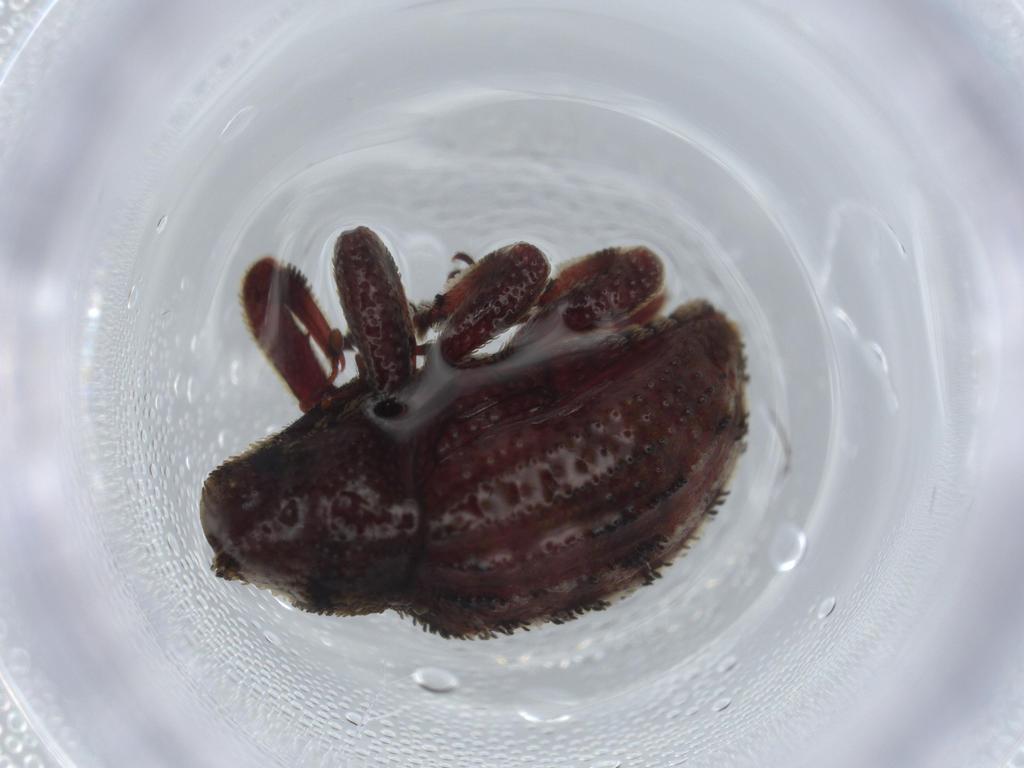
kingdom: Animalia
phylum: Arthropoda
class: Insecta
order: Coleoptera
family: Curculionidae
